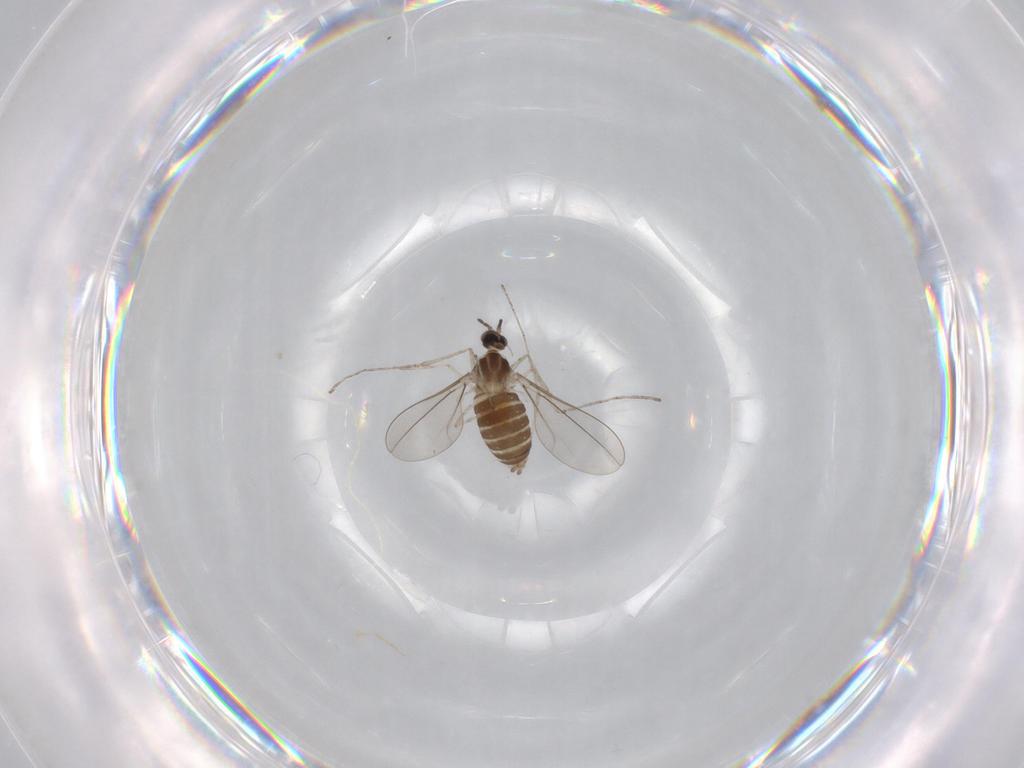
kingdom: Animalia
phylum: Arthropoda
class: Insecta
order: Diptera
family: Cecidomyiidae
